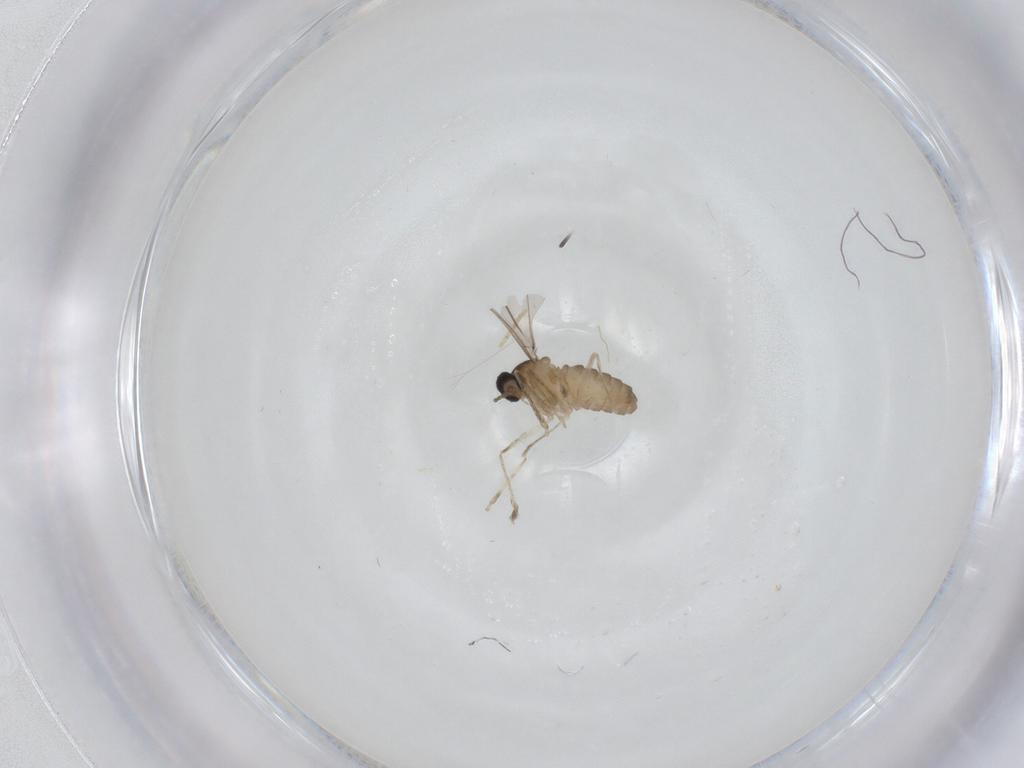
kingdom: Animalia
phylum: Arthropoda
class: Insecta
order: Diptera
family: Cecidomyiidae
